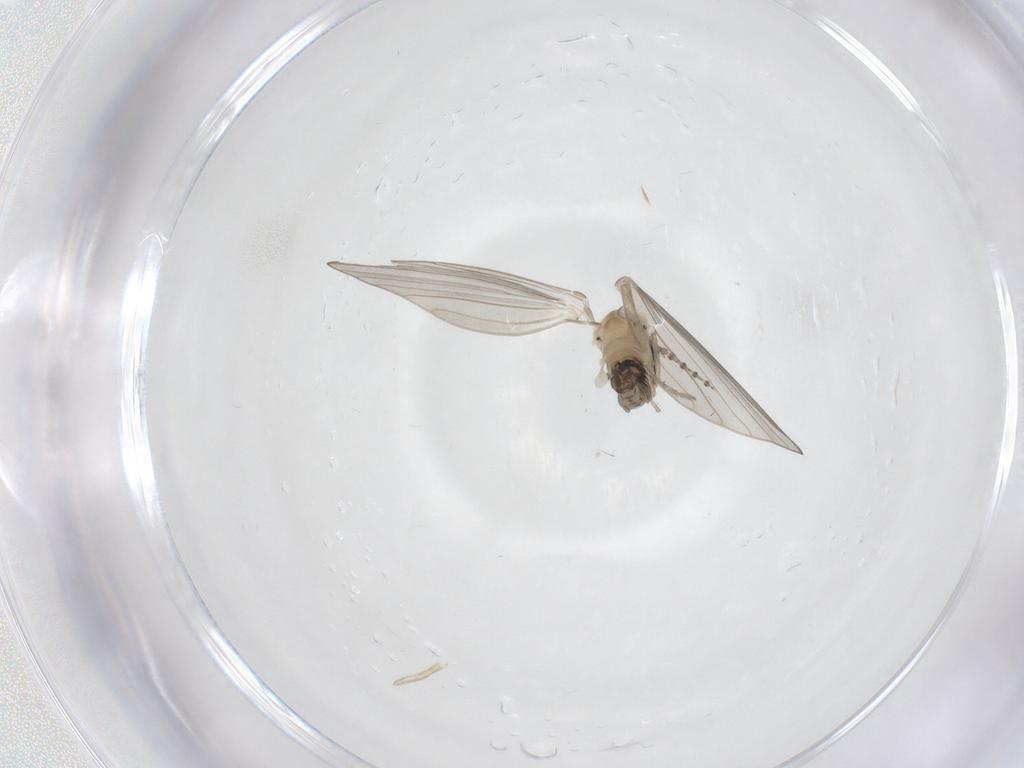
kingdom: Animalia
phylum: Arthropoda
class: Insecta
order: Diptera
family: Psychodidae
